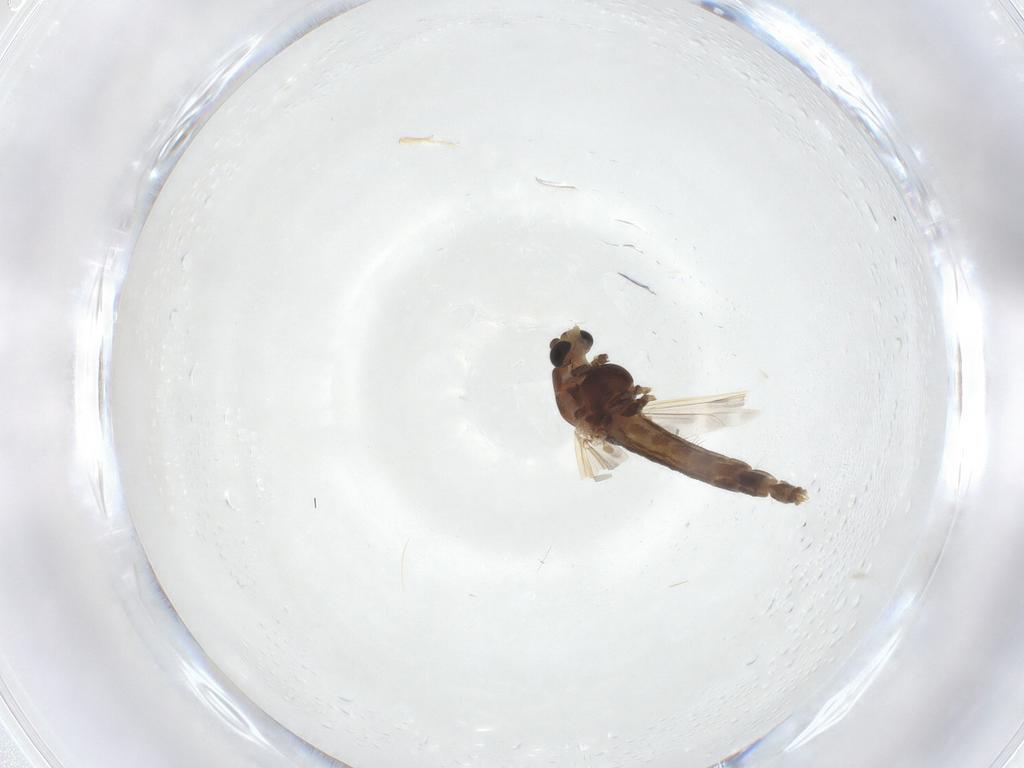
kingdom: Animalia
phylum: Arthropoda
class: Insecta
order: Diptera
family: Chironomidae
